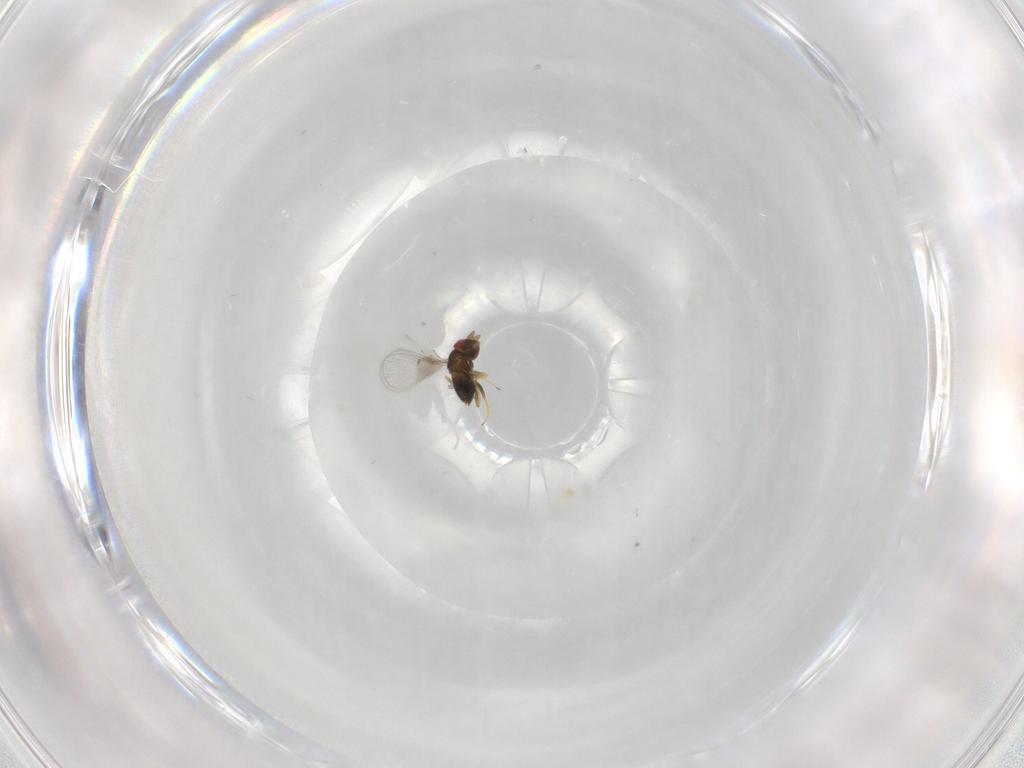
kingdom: Animalia
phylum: Arthropoda
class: Insecta
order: Hymenoptera
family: Trichogrammatidae
